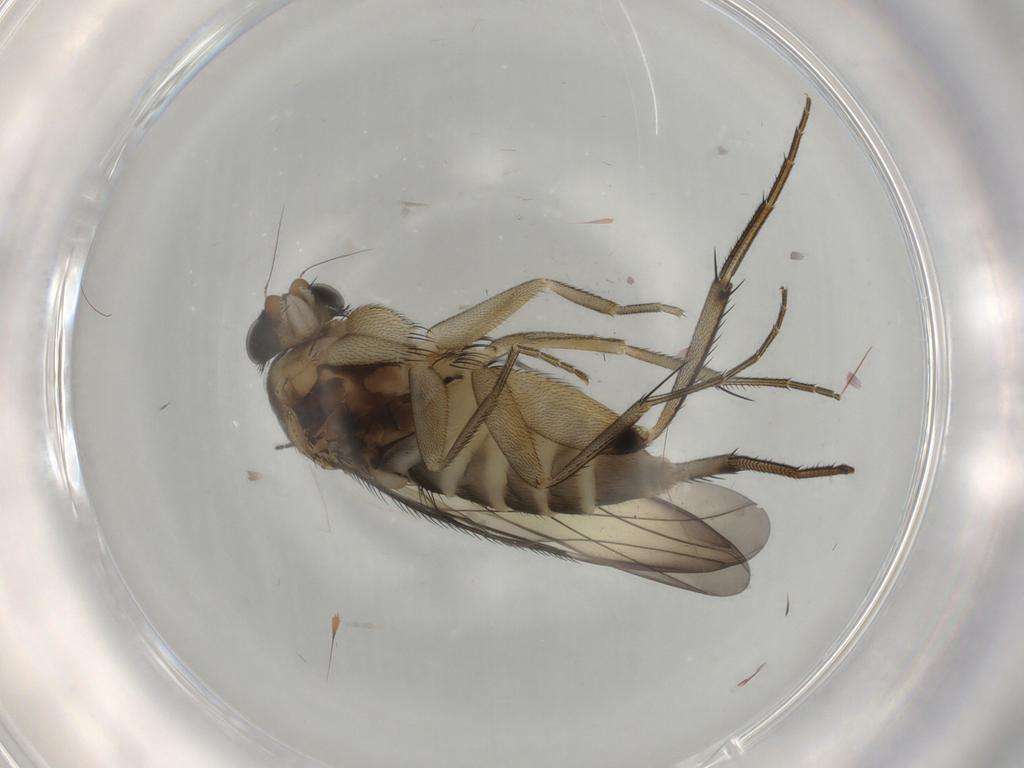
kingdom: Animalia
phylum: Arthropoda
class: Insecta
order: Diptera
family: Phoridae
